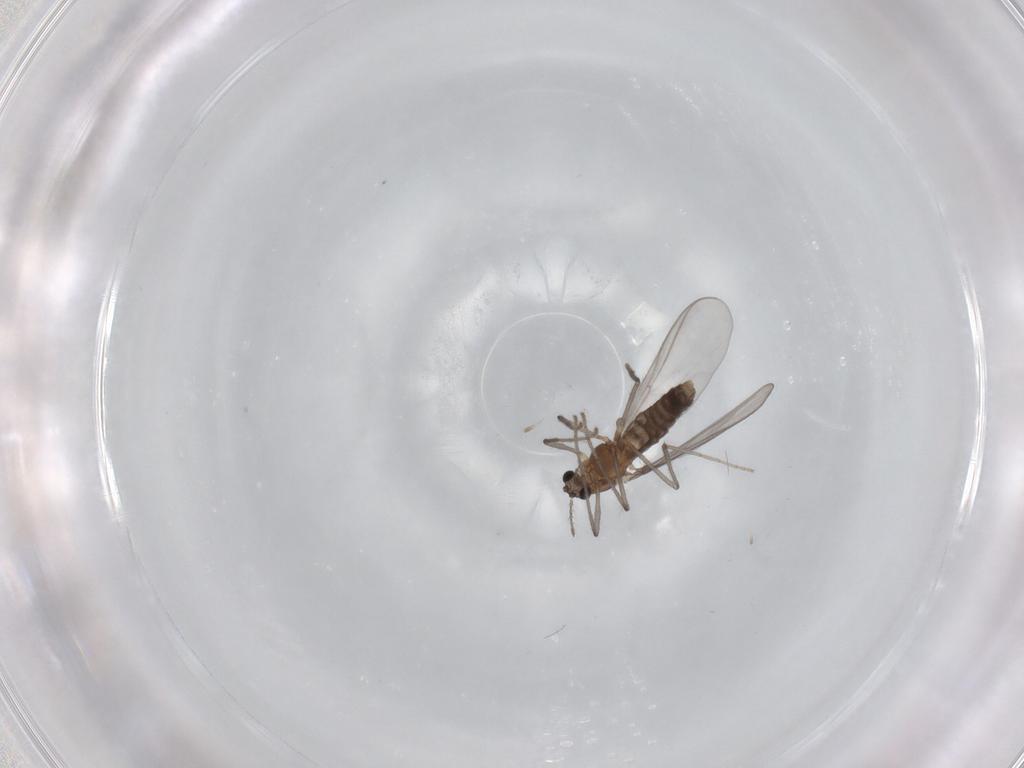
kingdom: Animalia
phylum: Arthropoda
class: Insecta
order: Diptera
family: Chironomidae
